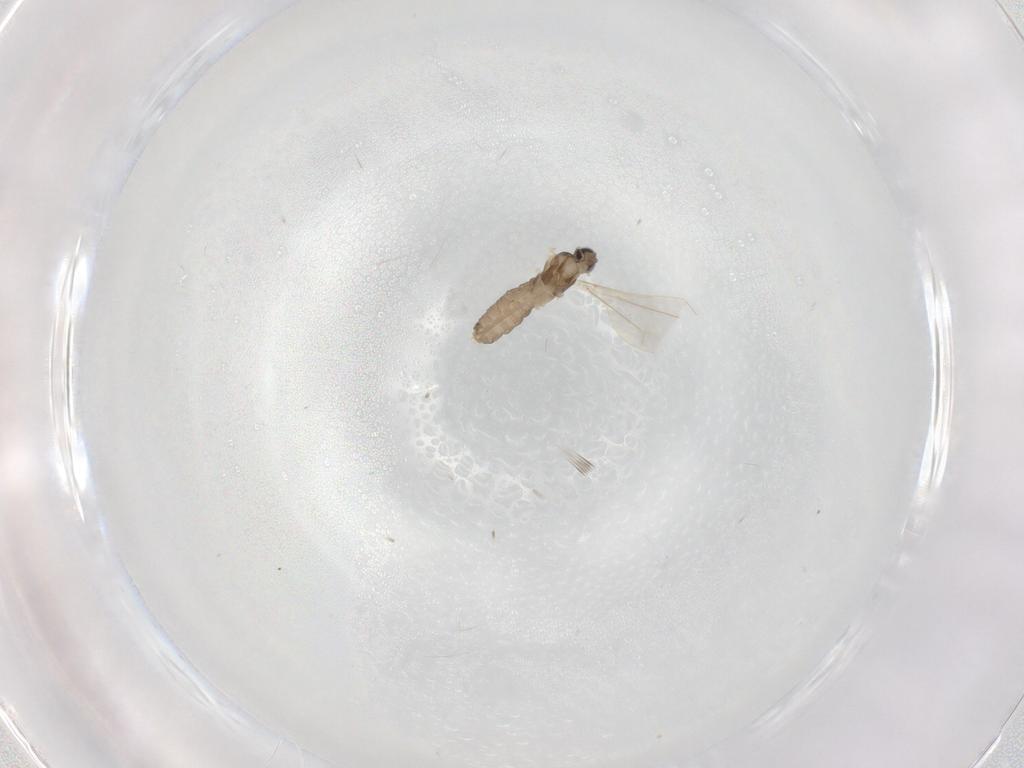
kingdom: Animalia
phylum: Arthropoda
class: Insecta
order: Diptera
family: Cecidomyiidae
